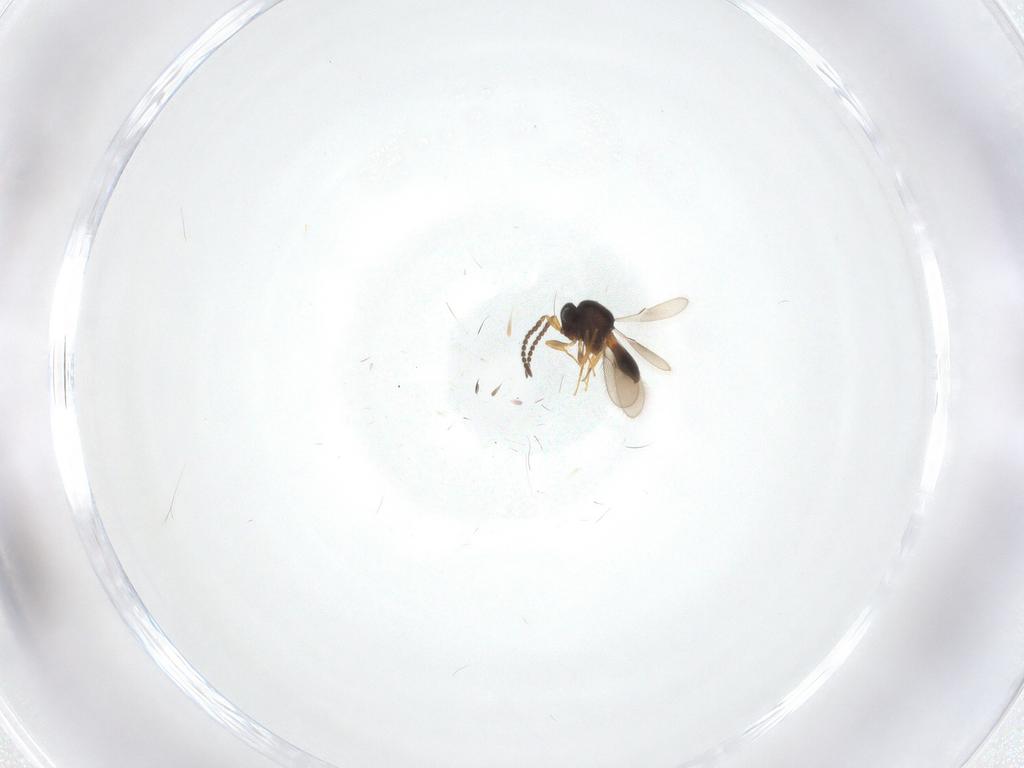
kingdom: Animalia
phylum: Arthropoda
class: Insecta
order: Hymenoptera
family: Scelionidae
